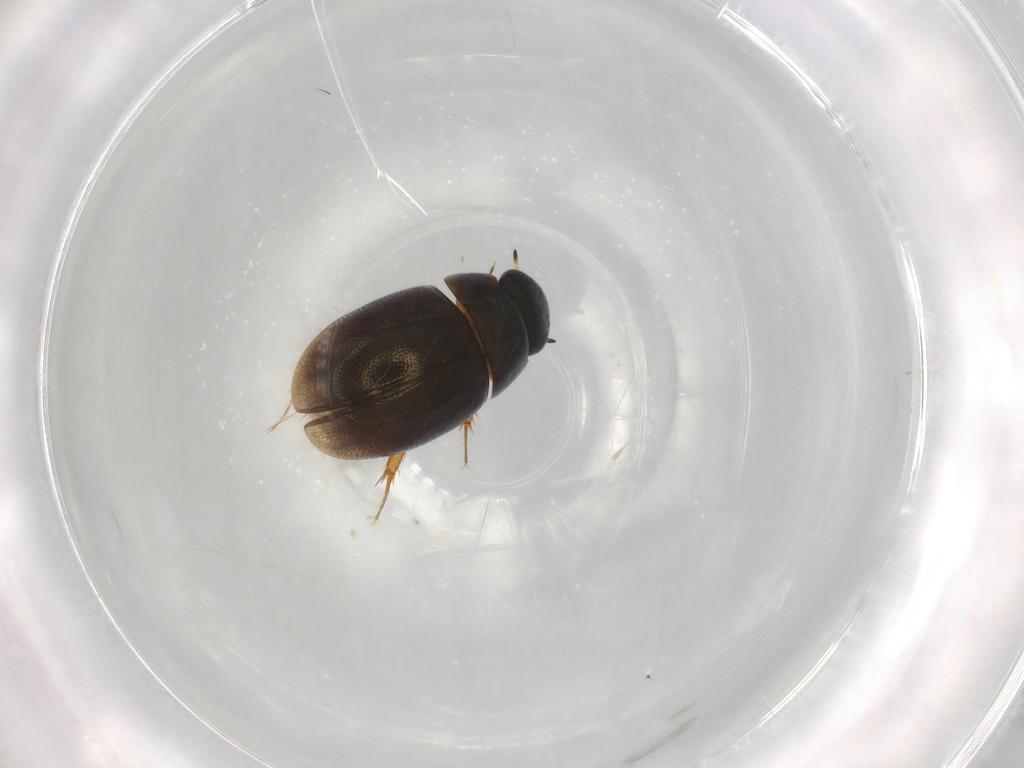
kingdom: Animalia
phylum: Arthropoda
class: Insecta
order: Coleoptera
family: Hydrophilidae
